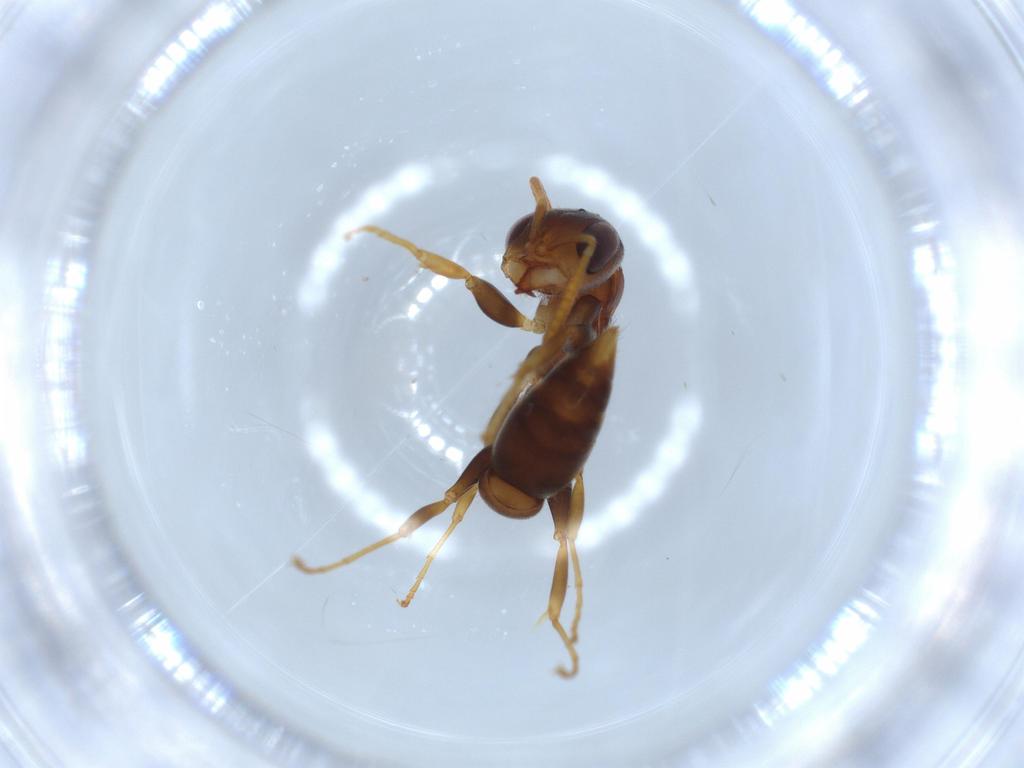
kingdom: Animalia
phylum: Arthropoda
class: Insecta
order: Hymenoptera
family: Formicidae
